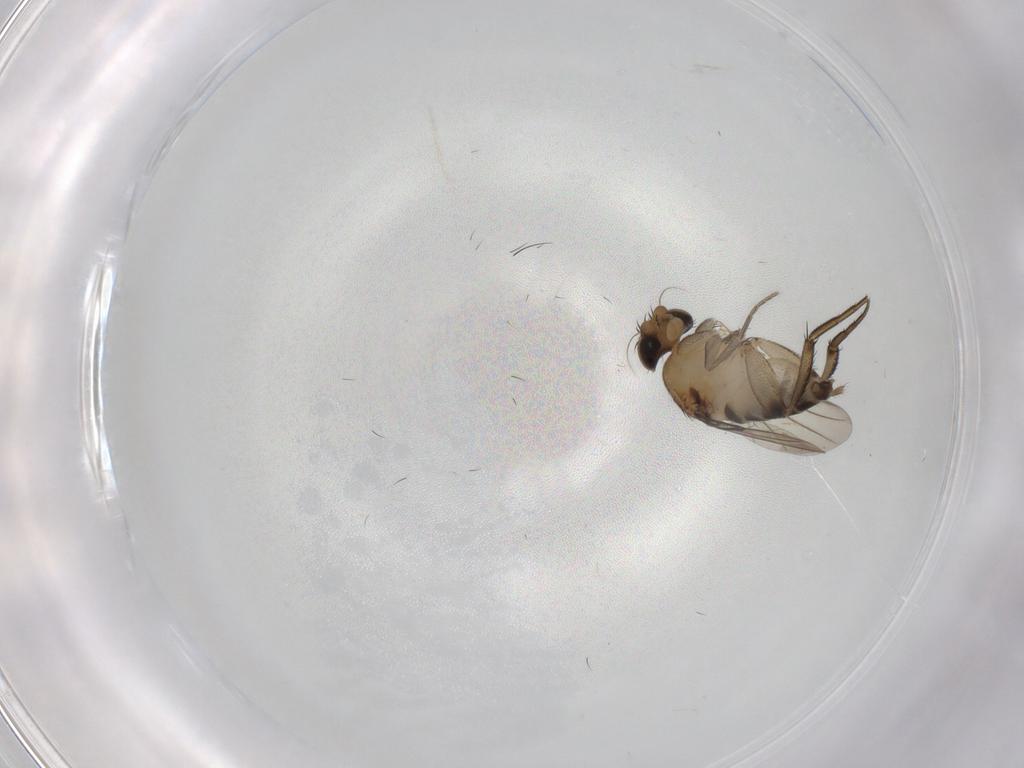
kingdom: Animalia
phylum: Arthropoda
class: Insecta
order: Diptera
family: Phoridae
